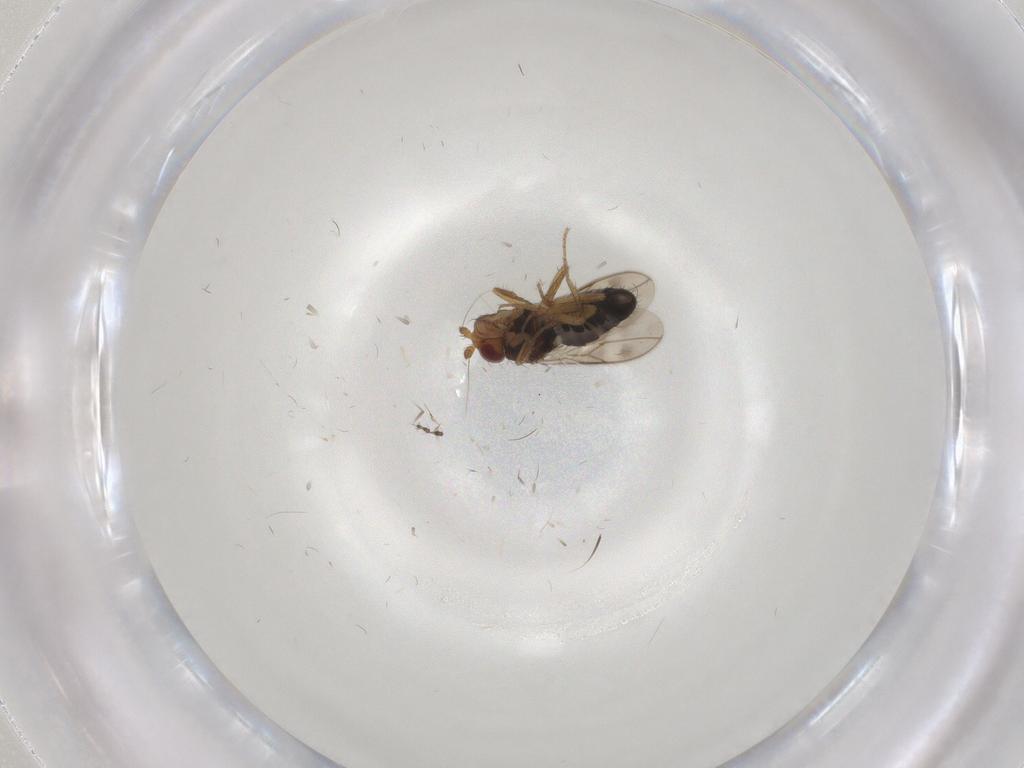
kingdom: Animalia
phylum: Arthropoda
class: Insecta
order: Diptera
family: Sphaeroceridae
